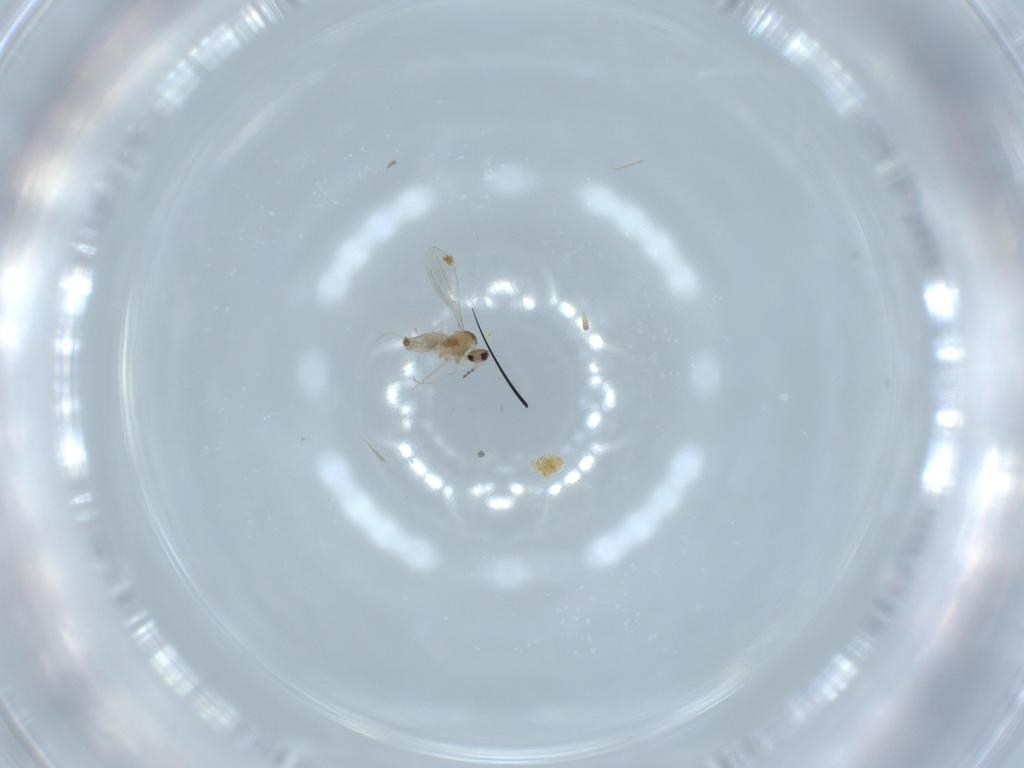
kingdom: Animalia
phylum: Arthropoda
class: Insecta
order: Diptera
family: Cecidomyiidae
